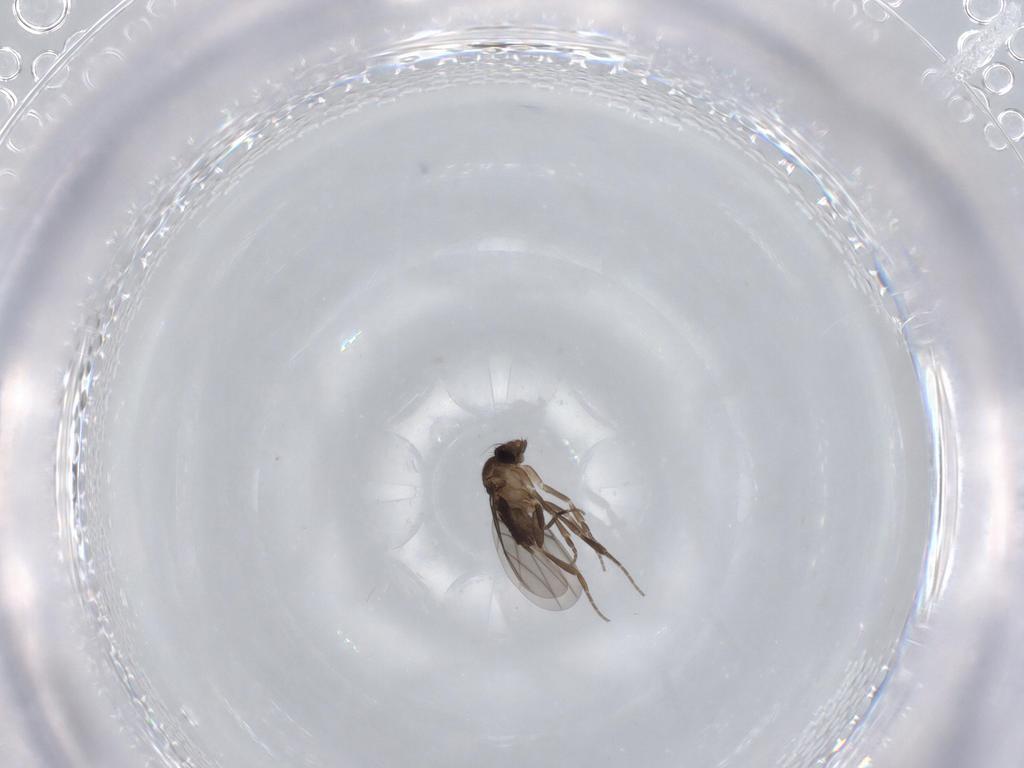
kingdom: Animalia
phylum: Arthropoda
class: Insecta
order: Diptera
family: Phoridae
